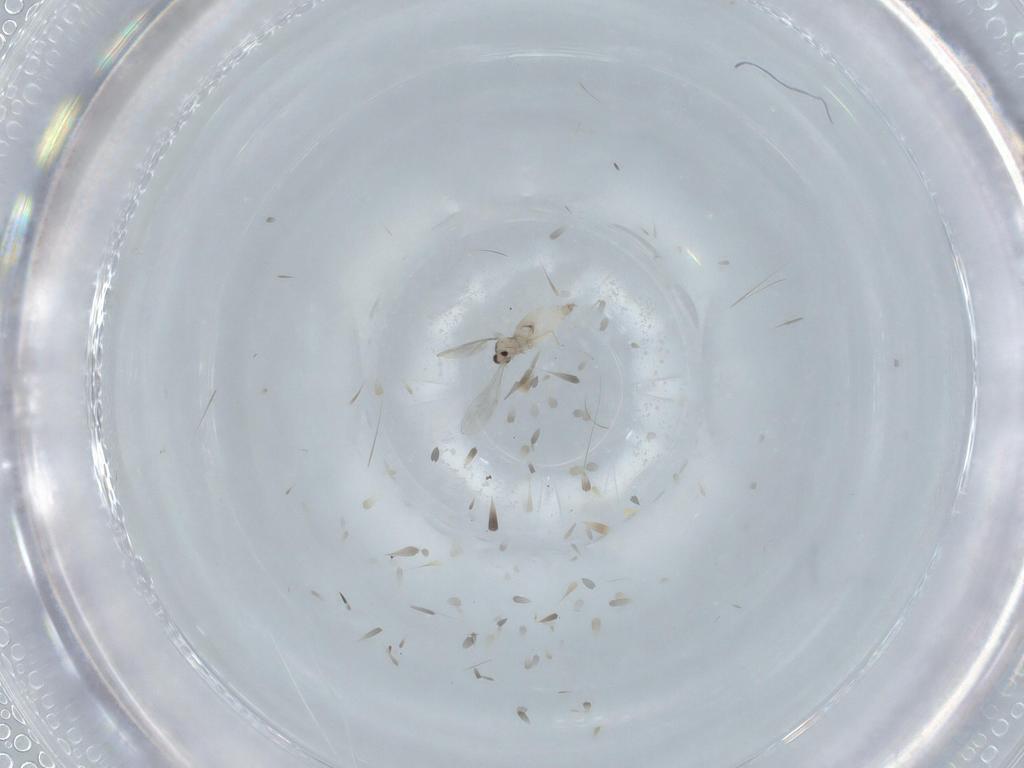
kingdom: Animalia
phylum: Arthropoda
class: Insecta
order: Diptera
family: Cecidomyiidae
